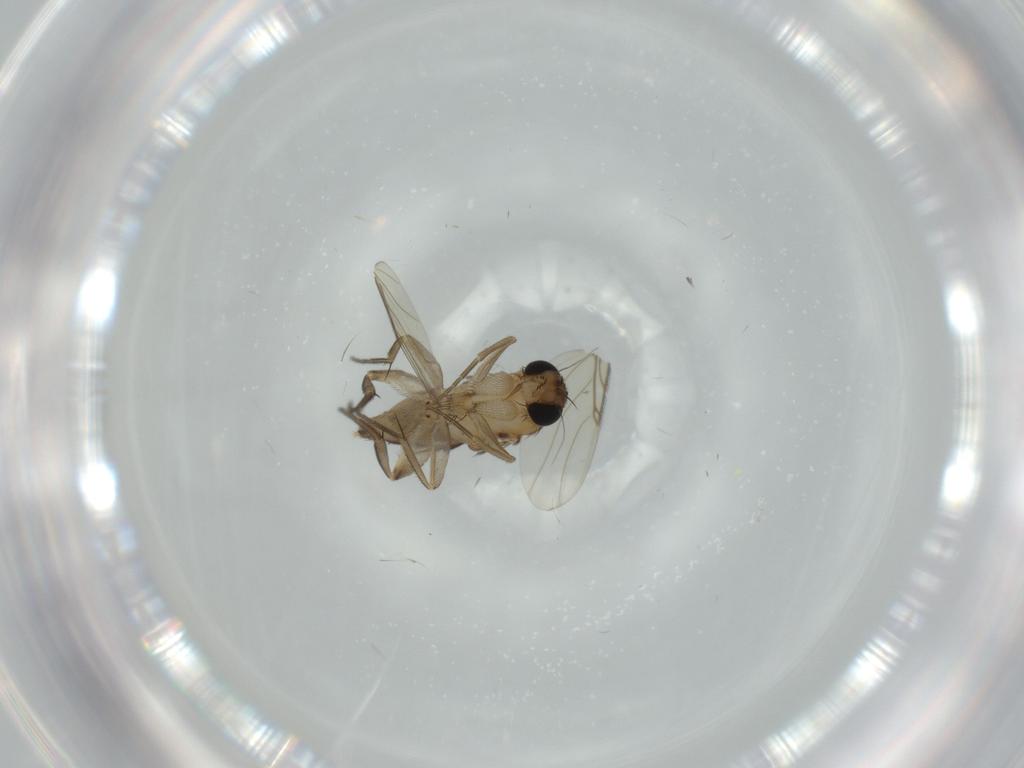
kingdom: Animalia
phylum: Arthropoda
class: Insecta
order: Diptera
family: Phoridae
